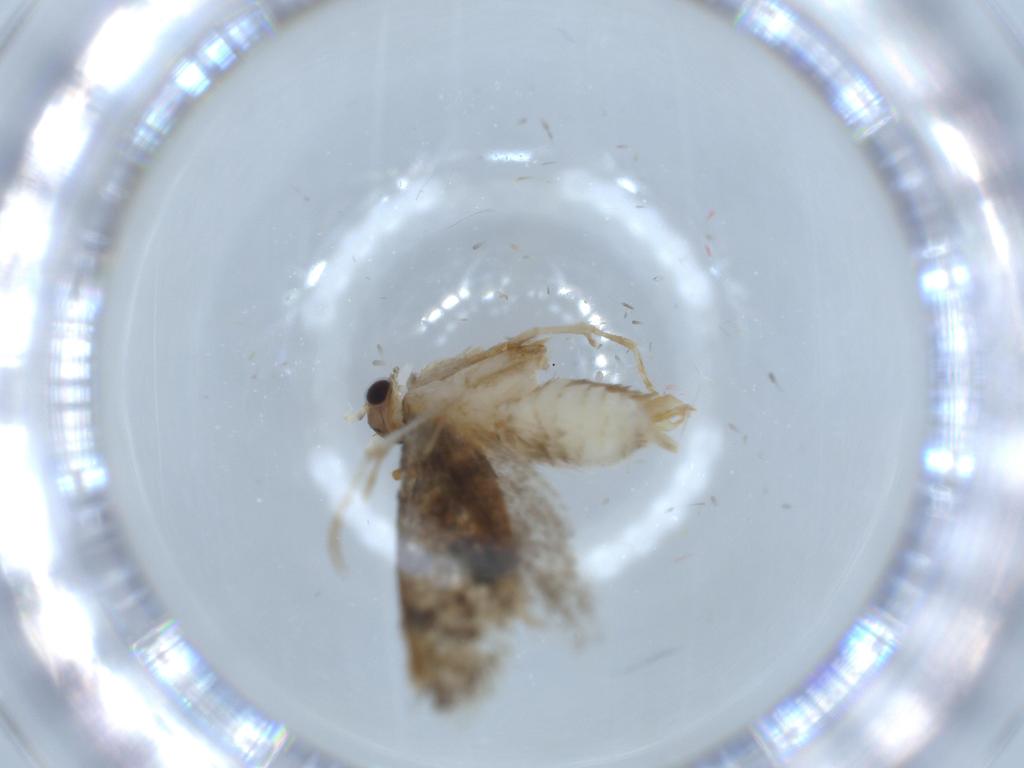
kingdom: Animalia
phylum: Arthropoda
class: Insecta
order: Lepidoptera
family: Tineidae
